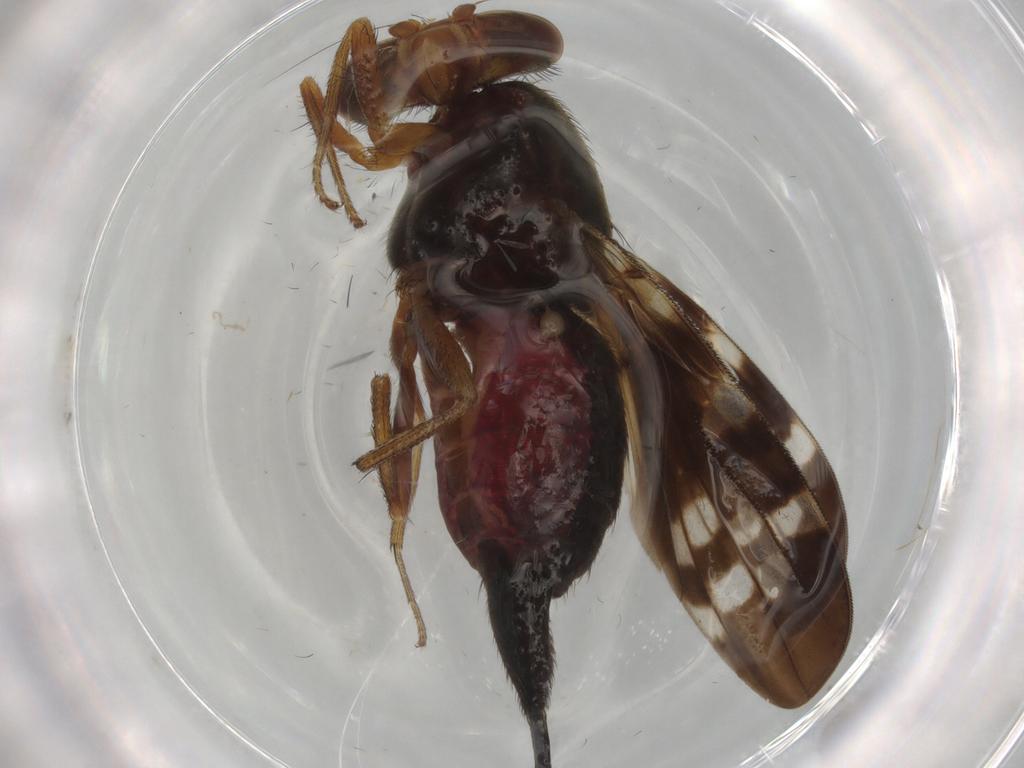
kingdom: Animalia
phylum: Arthropoda
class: Insecta
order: Diptera
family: Ulidiidae
